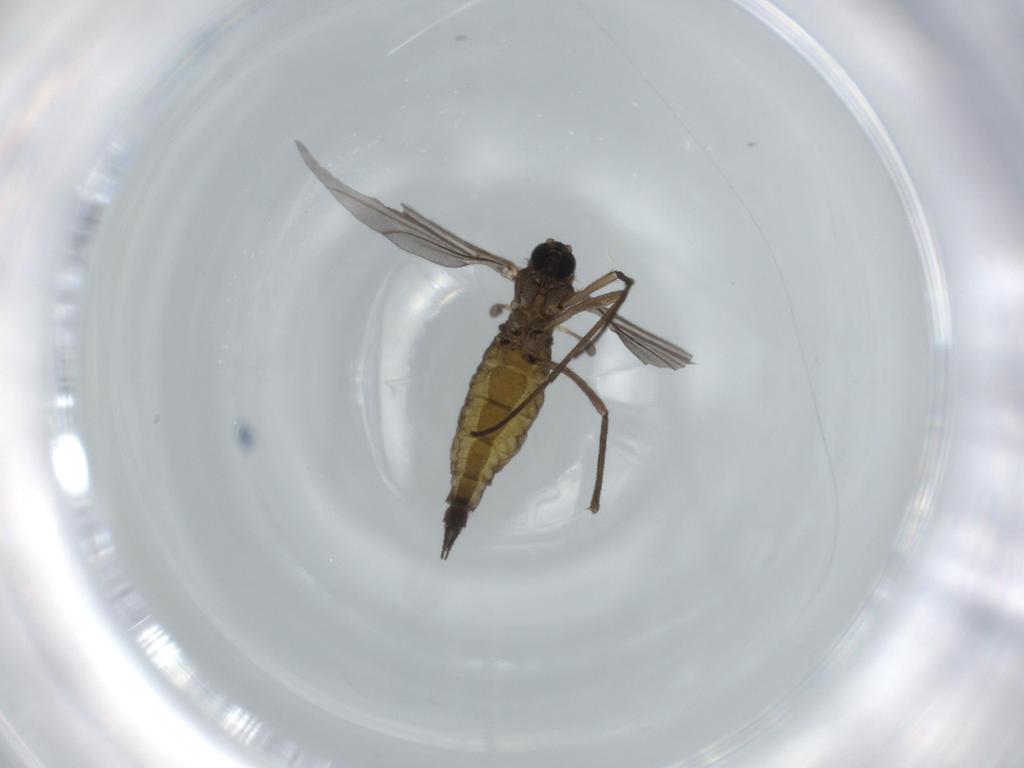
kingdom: Animalia
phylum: Arthropoda
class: Insecta
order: Diptera
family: Sciaridae
